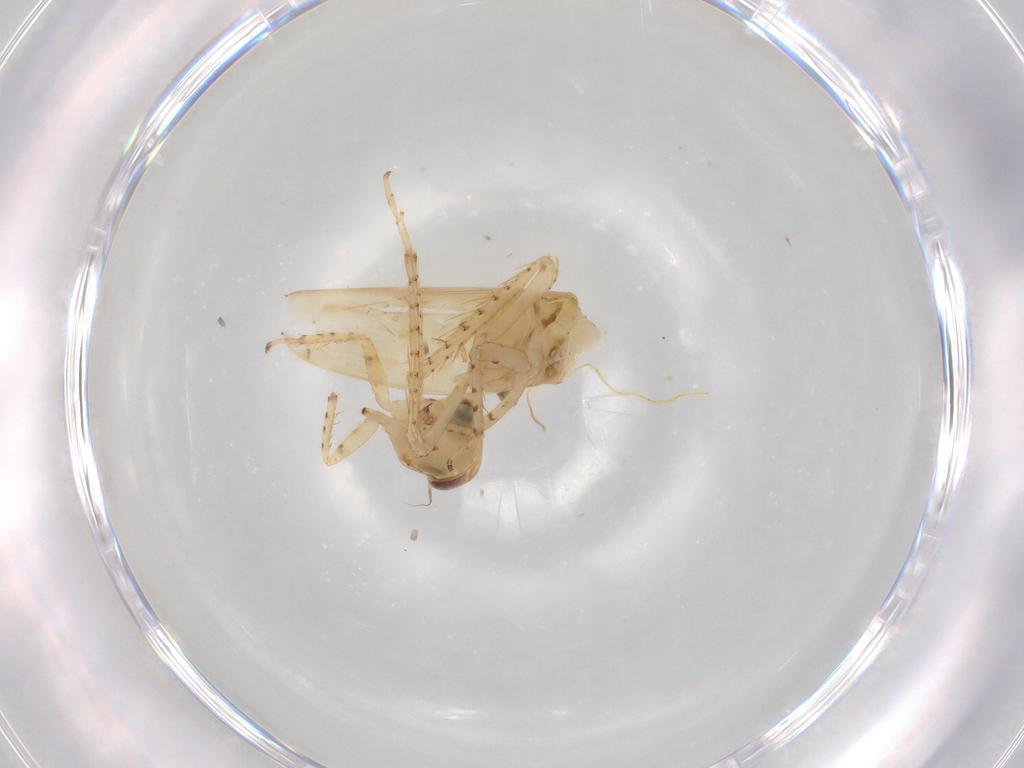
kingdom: Animalia
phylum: Arthropoda
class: Insecta
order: Hemiptera
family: Cicadellidae
